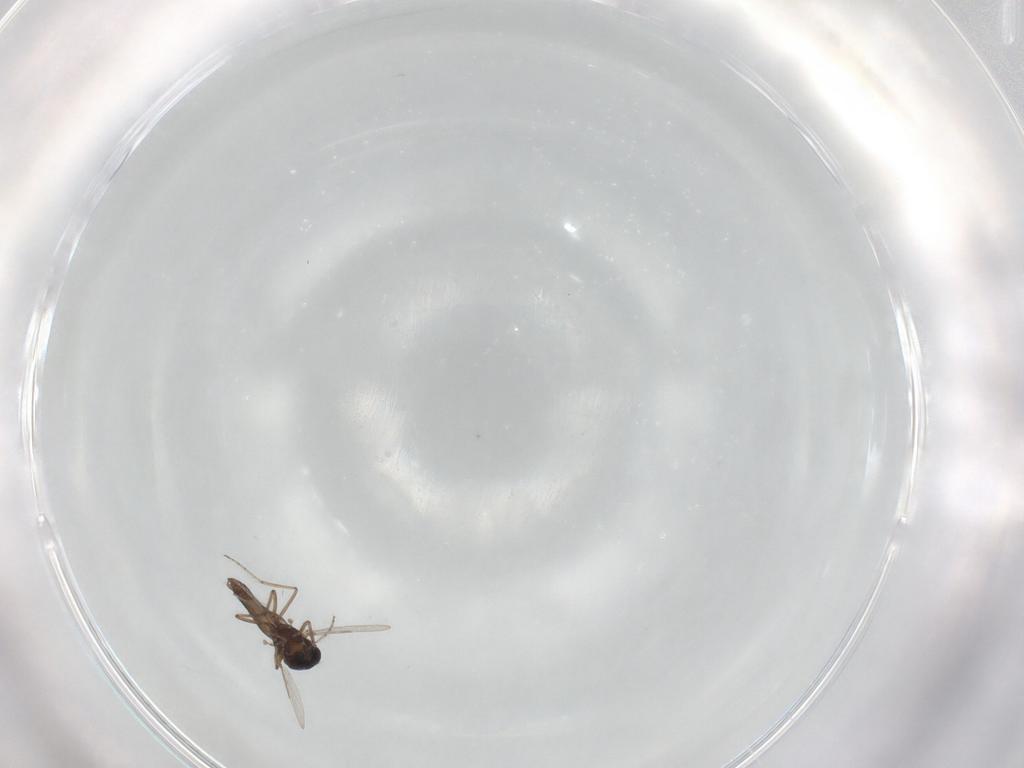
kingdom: Animalia
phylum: Arthropoda
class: Insecta
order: Diptera
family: Ceratopogonidae
